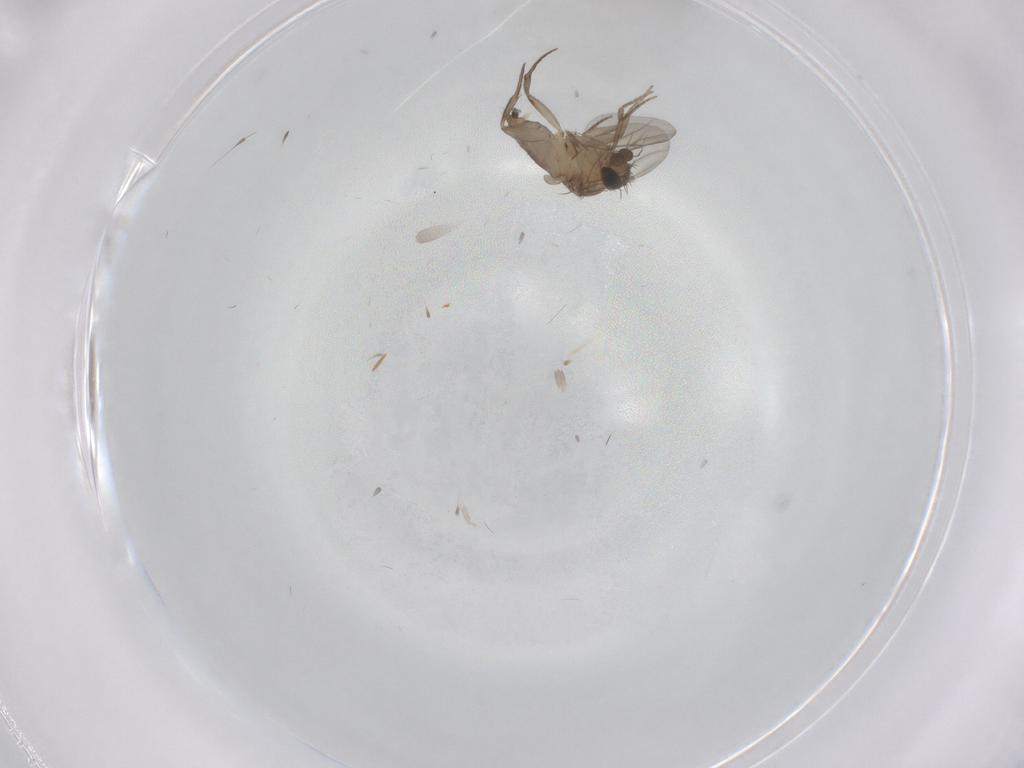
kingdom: Animalia
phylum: Arthropoda
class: Insecta
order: Diptera
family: Phoridae
